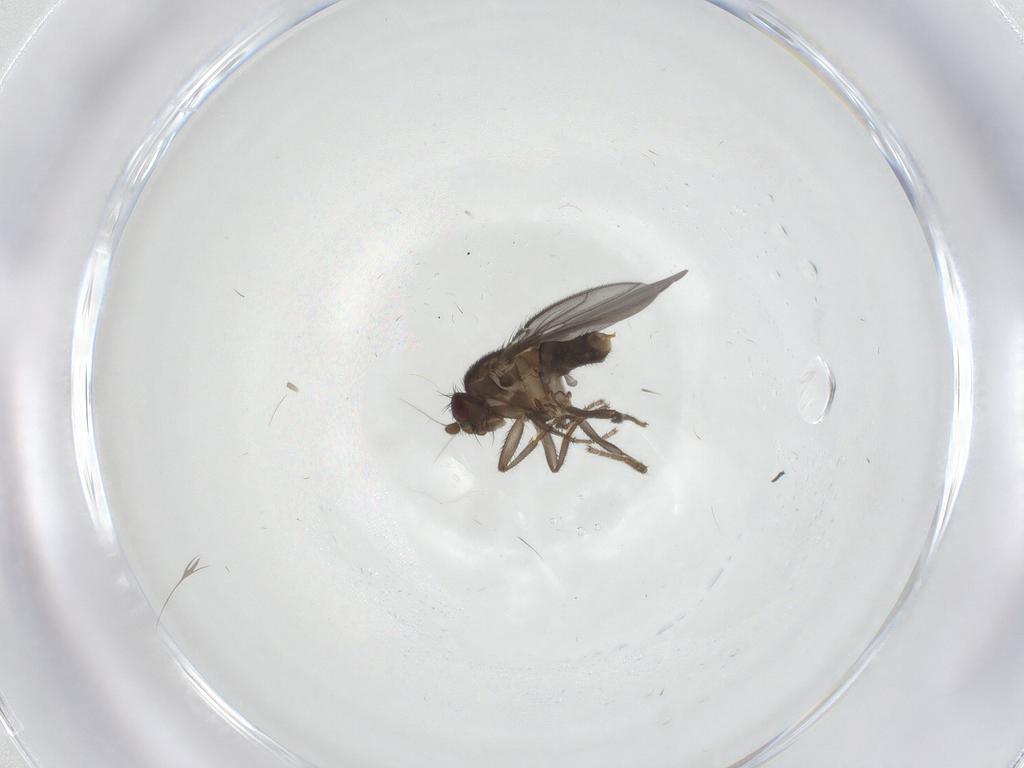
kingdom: Animalia
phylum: Arthropoda
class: Insecta
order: Diptera
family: Sphaeroceridae
